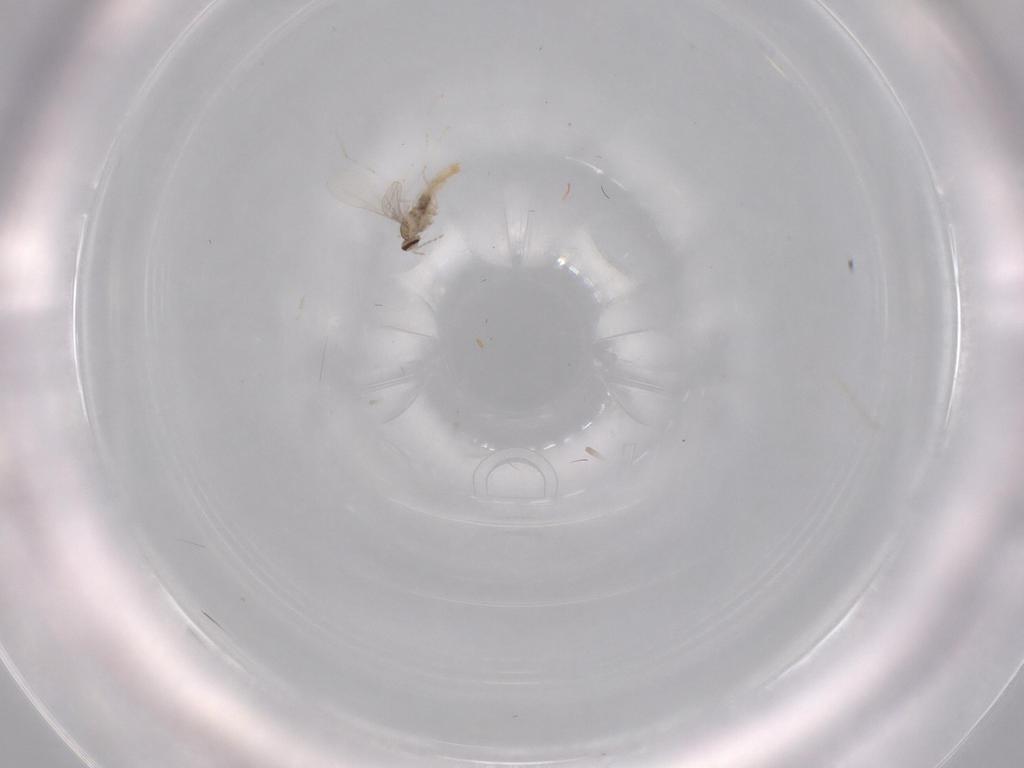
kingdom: Animalia
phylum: Arthropoda
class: Insecta
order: Diptera
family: Cecidomyiidae
